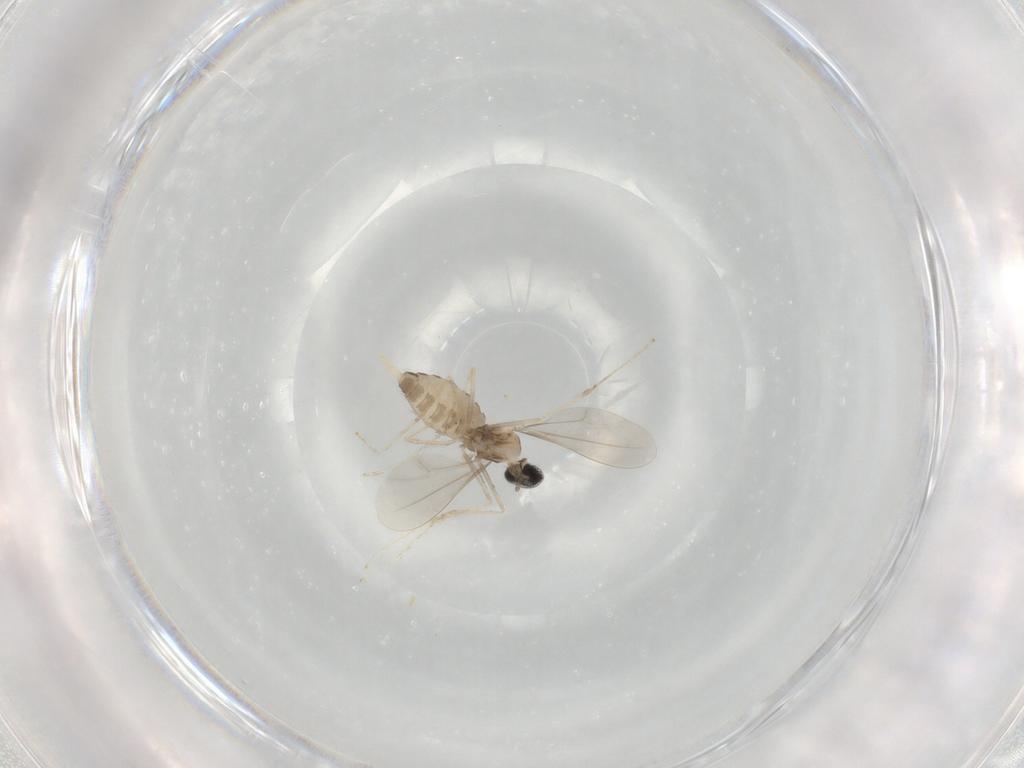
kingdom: Animalia
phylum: Arthropoda
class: Insecta
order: Diptera
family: Cecidomyiidae
